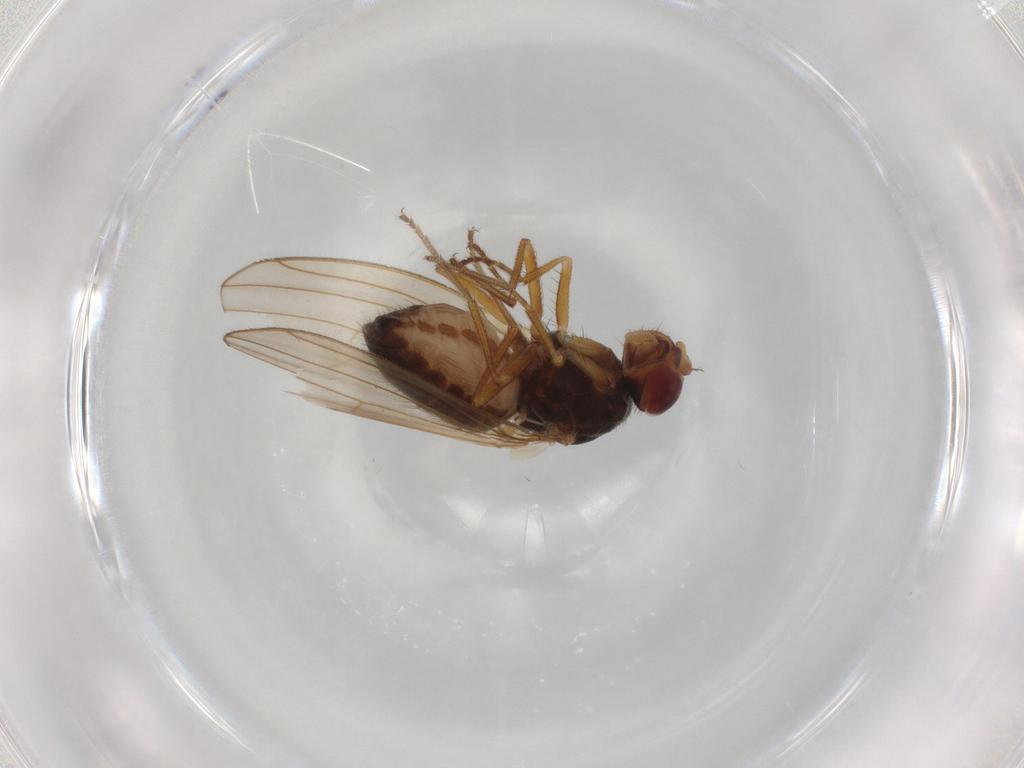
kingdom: Animalia
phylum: Arthropoda
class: Insecta
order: Diptera
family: Drosophilidae
